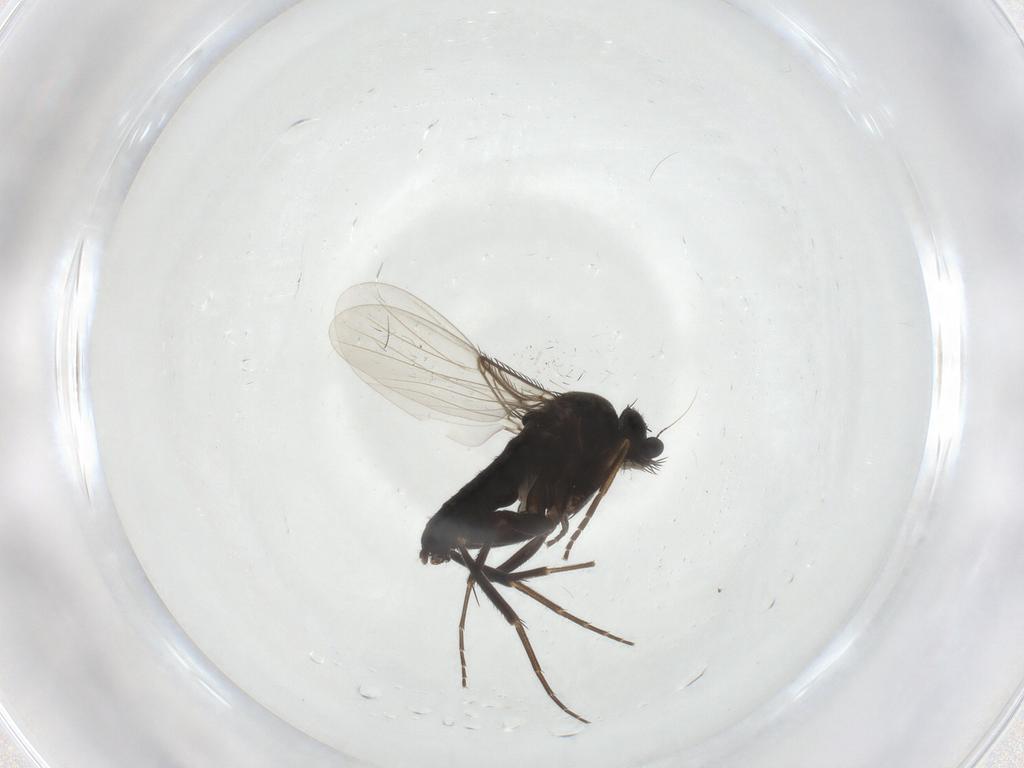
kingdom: Animalia
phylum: Arthropoda
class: Insecta
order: Diptera
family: Phoridae
